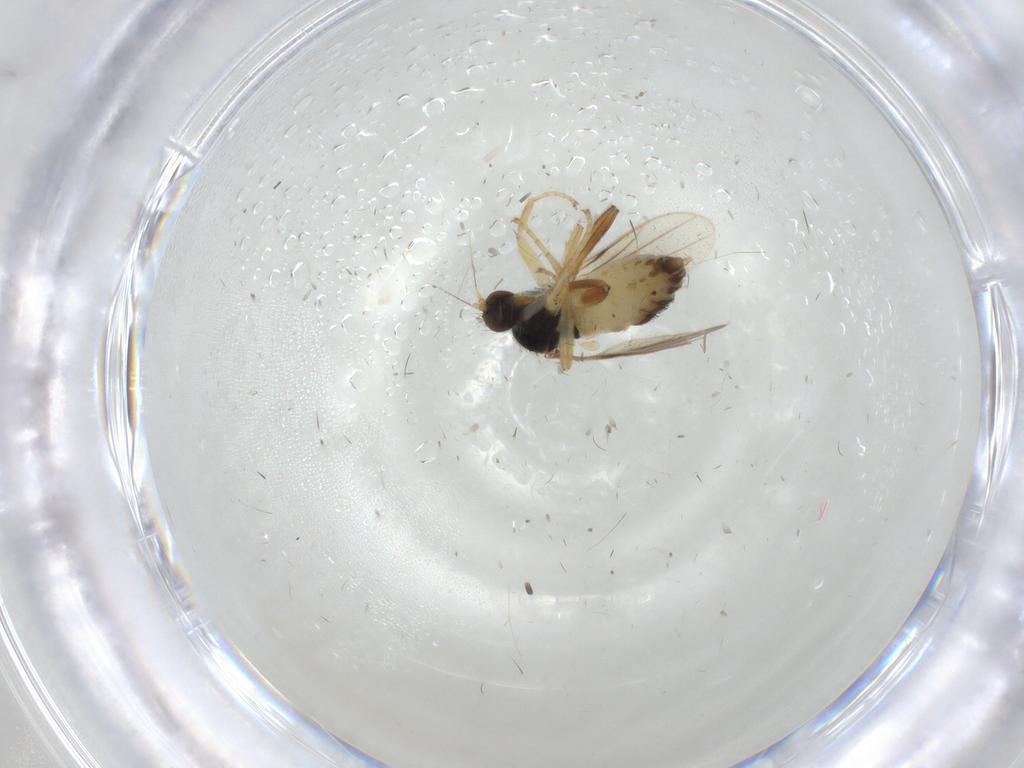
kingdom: Animalia
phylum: Arthropoda
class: Insecta
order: Diptera
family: Hybotidae
